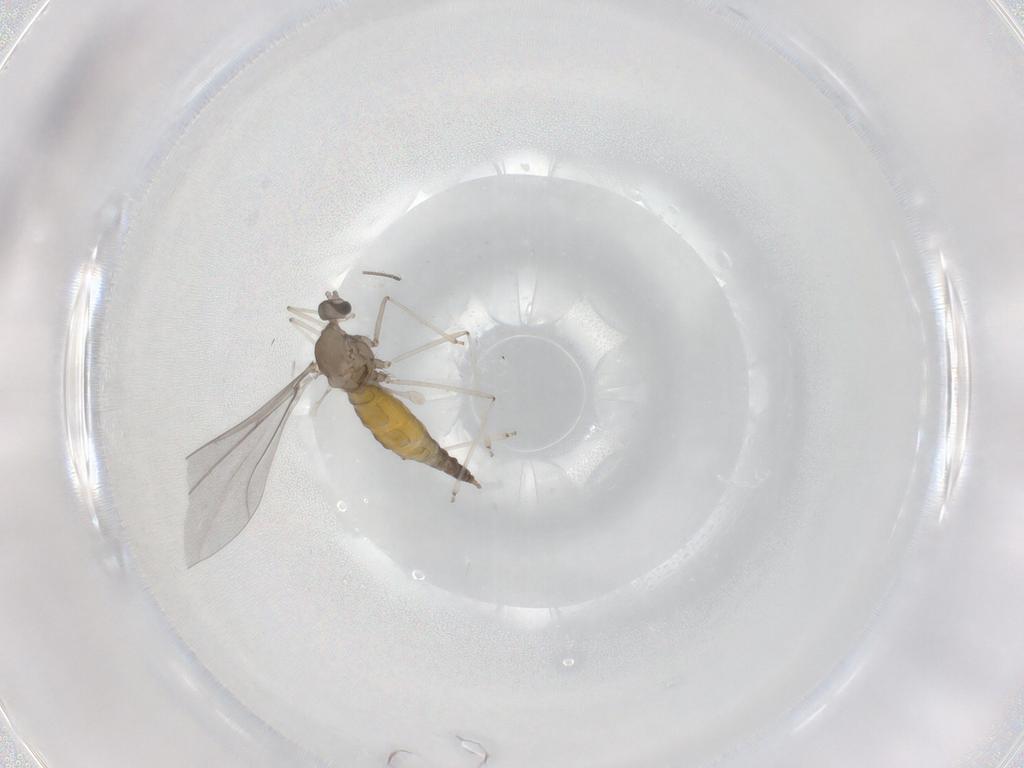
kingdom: Animalia
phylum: Arthropoda
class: Insecta
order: Diptera
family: Cecidomyiidae
